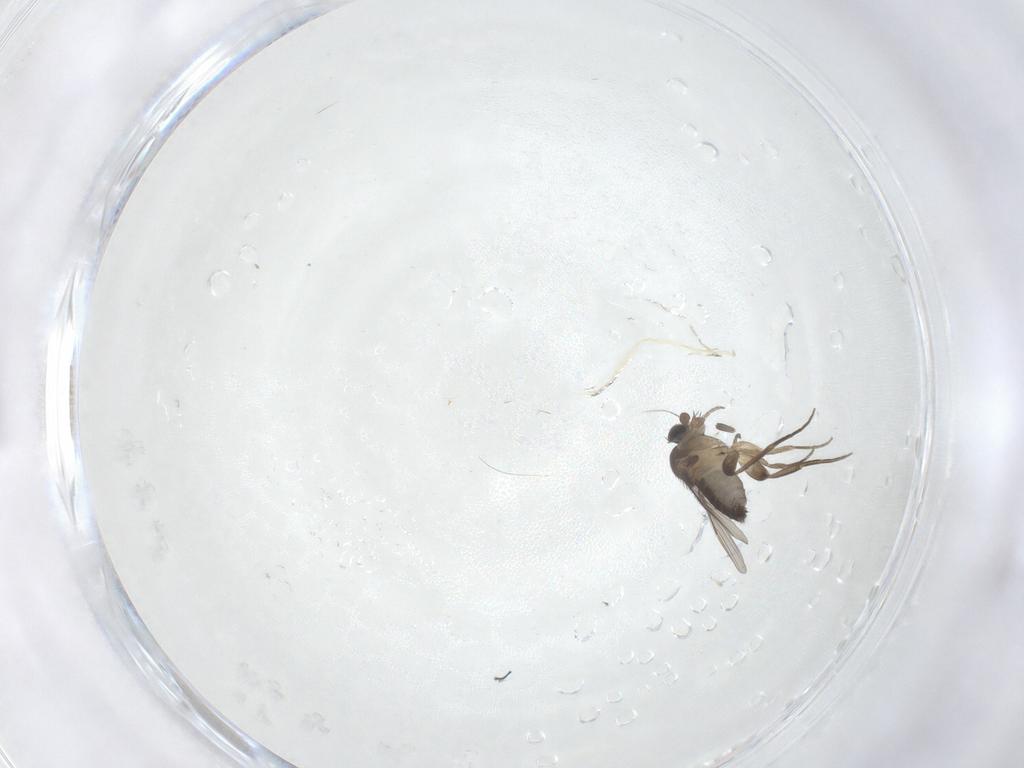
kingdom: Animalia
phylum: Arthropoda
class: Insecta
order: Diptera
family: Phoridae
